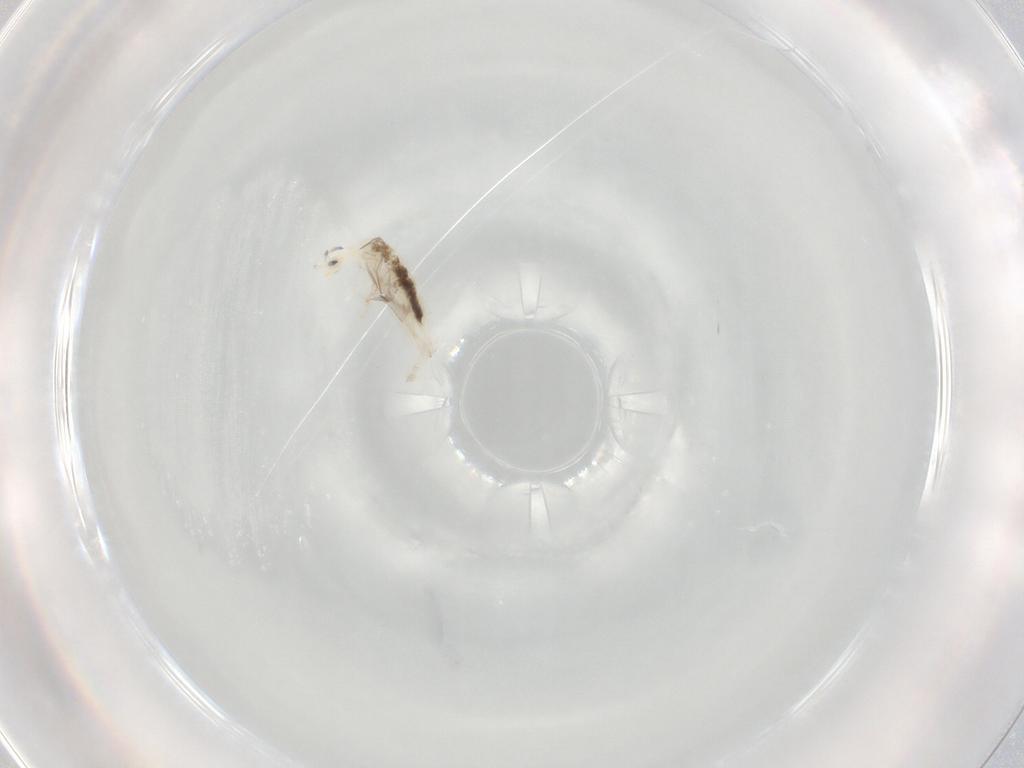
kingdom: Animalia
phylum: Arthropoda
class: Collembola
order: Entomobryomorpha
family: Entomobryidae
